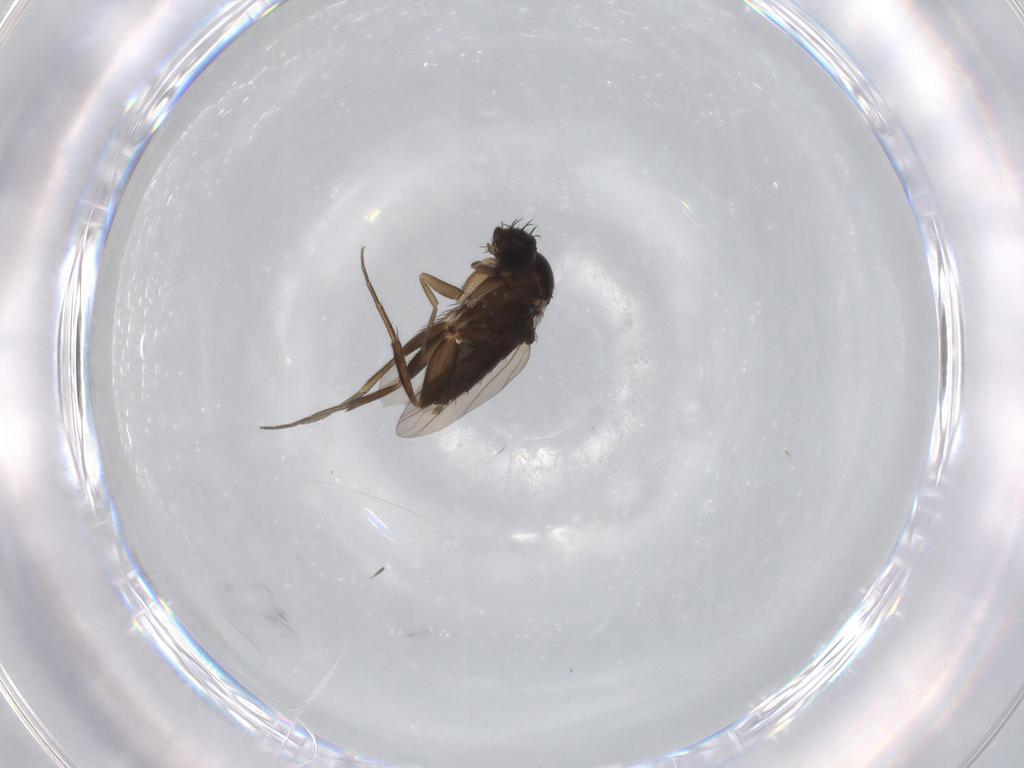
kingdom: Animalia
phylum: Arthropoda
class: Insecta
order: Diptera
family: Phoridae
